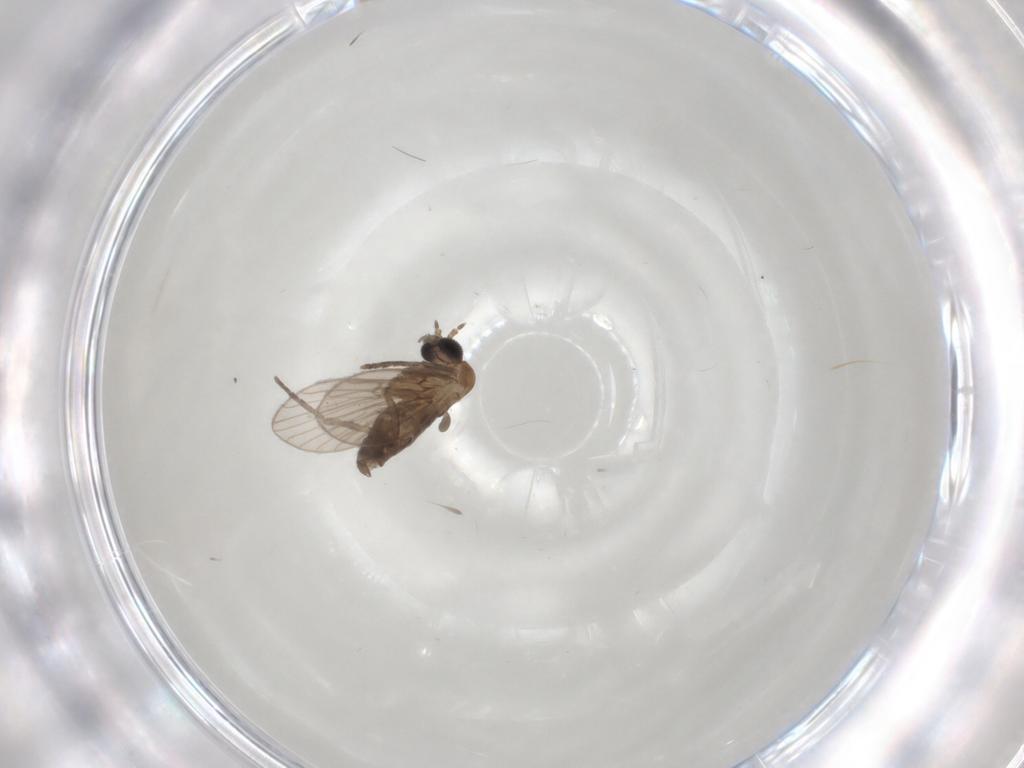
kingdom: Animalia
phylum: Arthropoda
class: Insecta
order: Diptera
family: Psychodidae
